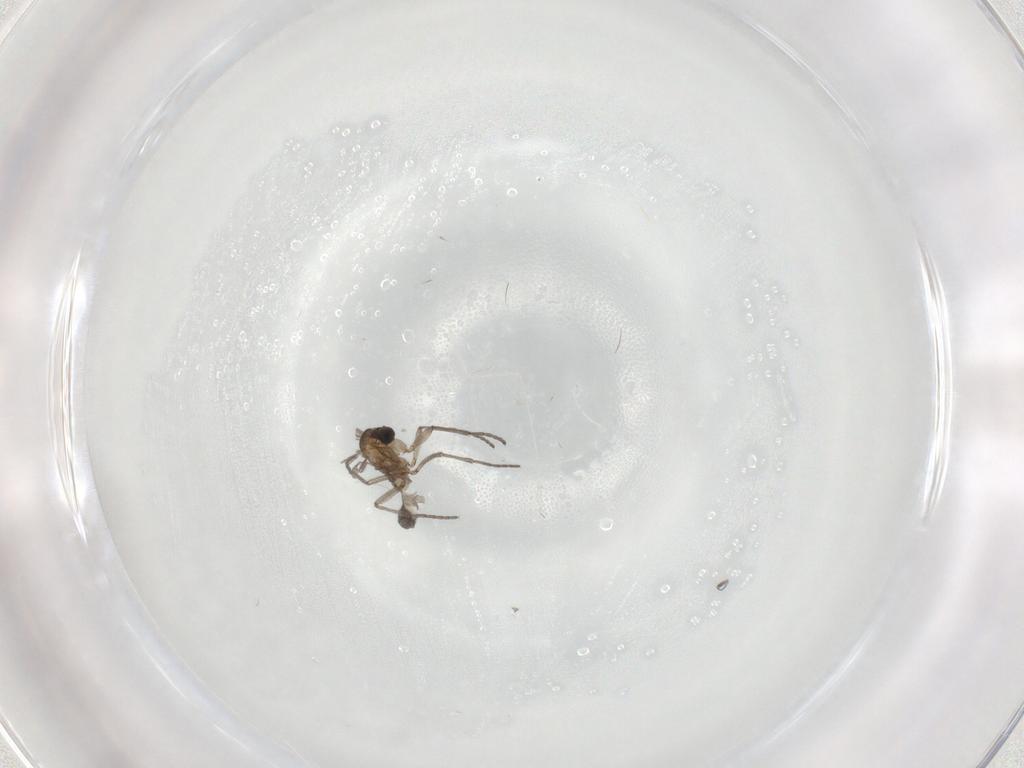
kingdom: Animalia
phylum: Arthropoda
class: Insecta
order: Diptera
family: Sciaridae
